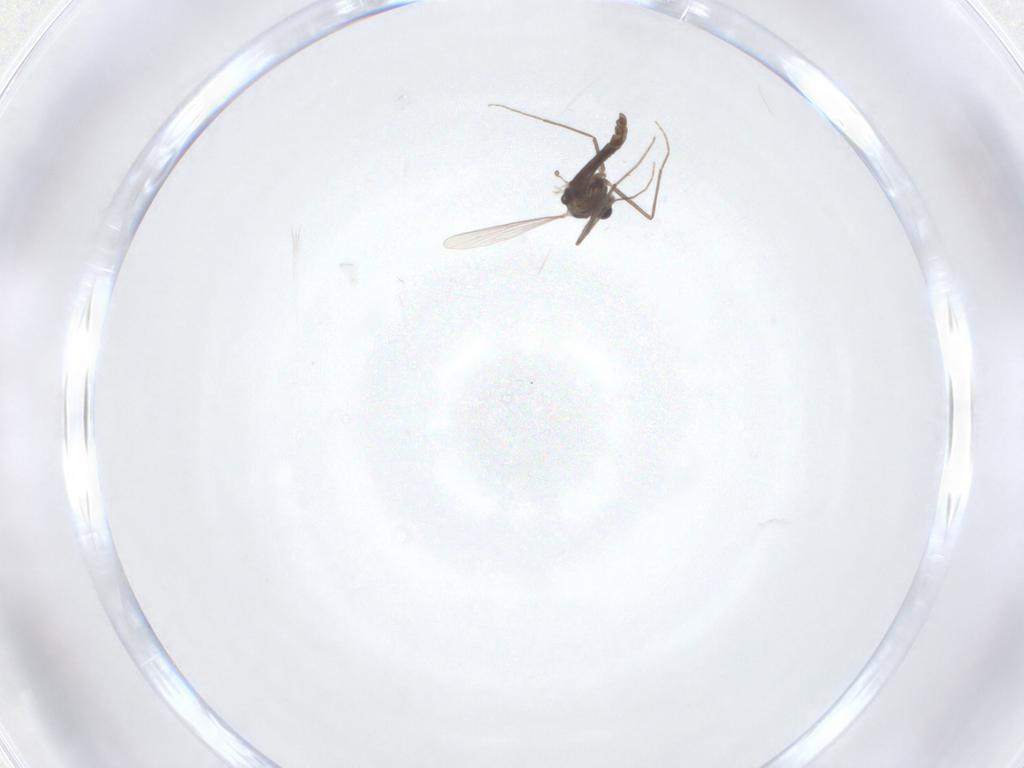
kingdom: Animalia
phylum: Arthropoda
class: Insecta
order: Diptera
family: Chironomidae
